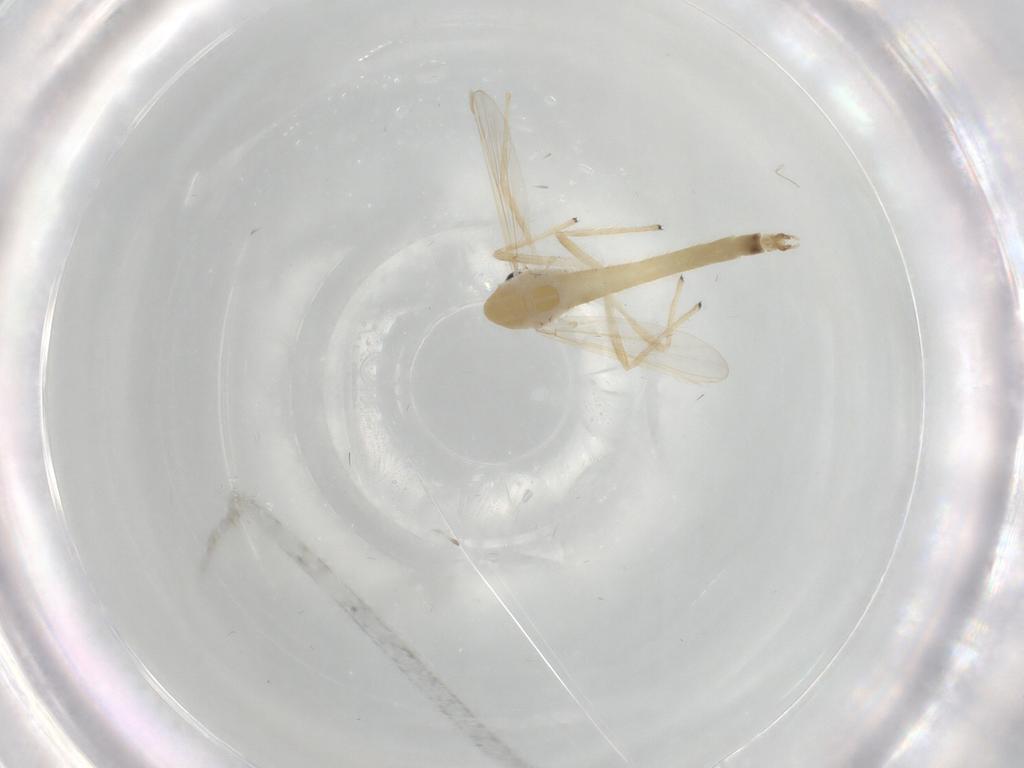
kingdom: Animalia
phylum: Arthropoda
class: Insecta
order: Diptera
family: Chironomidae
